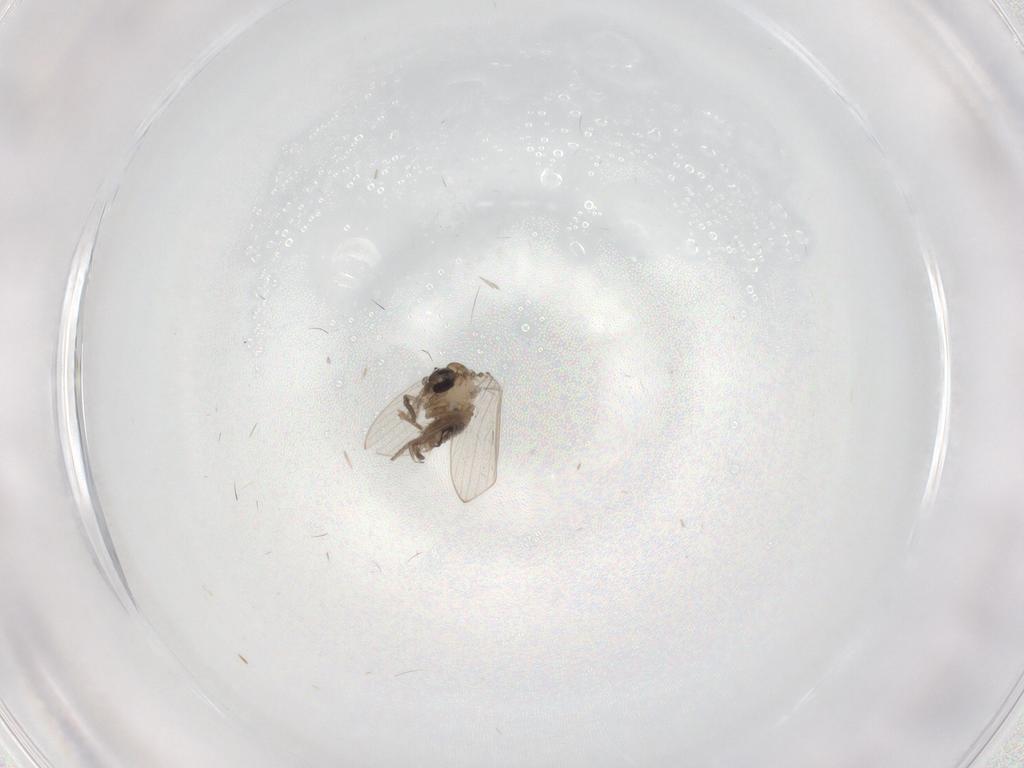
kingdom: Animalia
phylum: Arthropoda
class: Insecta
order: Diptera
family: Psychodidae
